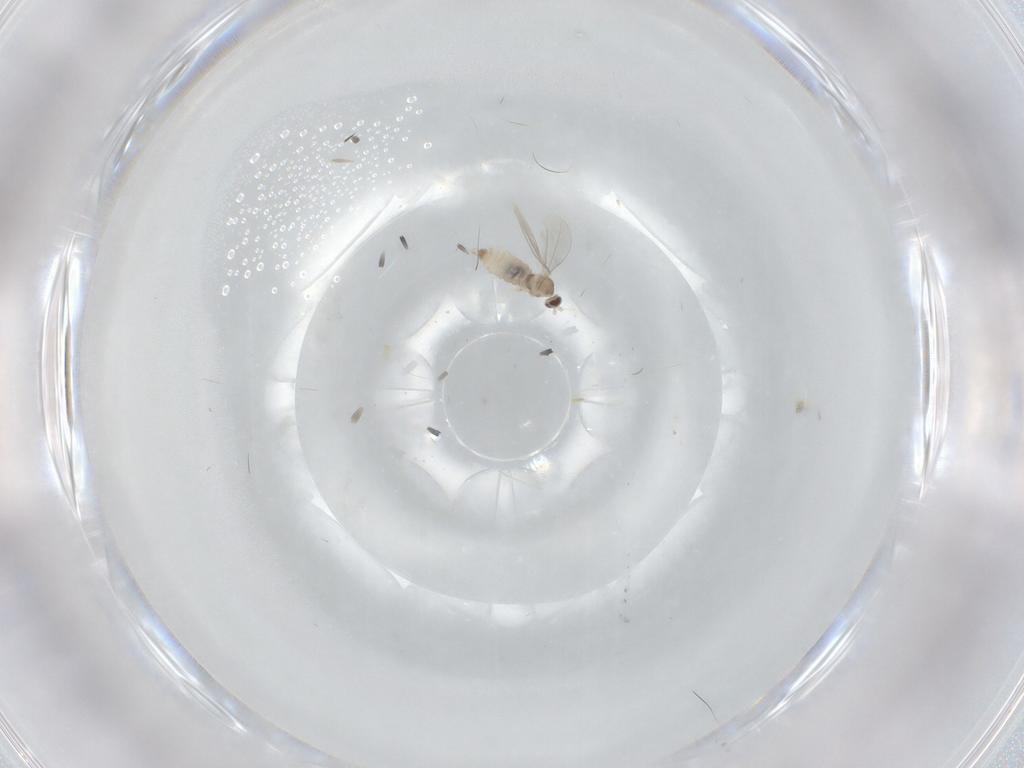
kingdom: Animalia
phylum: Arthropoda
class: Insecta
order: Diptera
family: Cecidomyiidae
